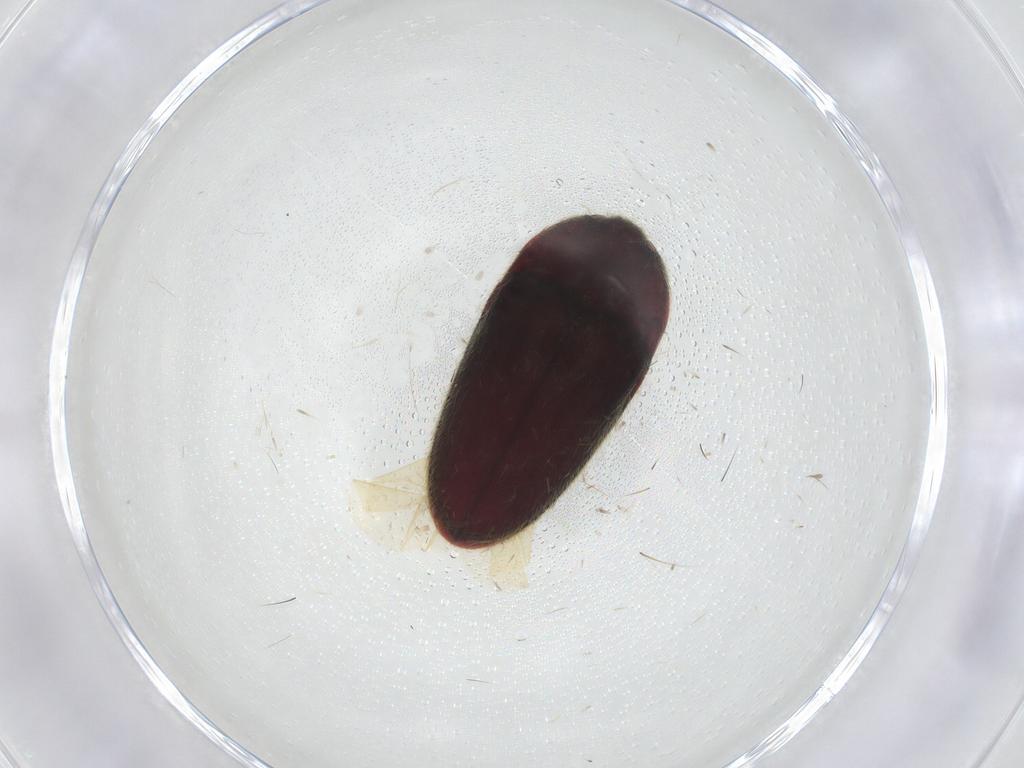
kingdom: Animalia
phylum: Arthropoda
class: Insecta
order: Coleoptera
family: Throscidae
